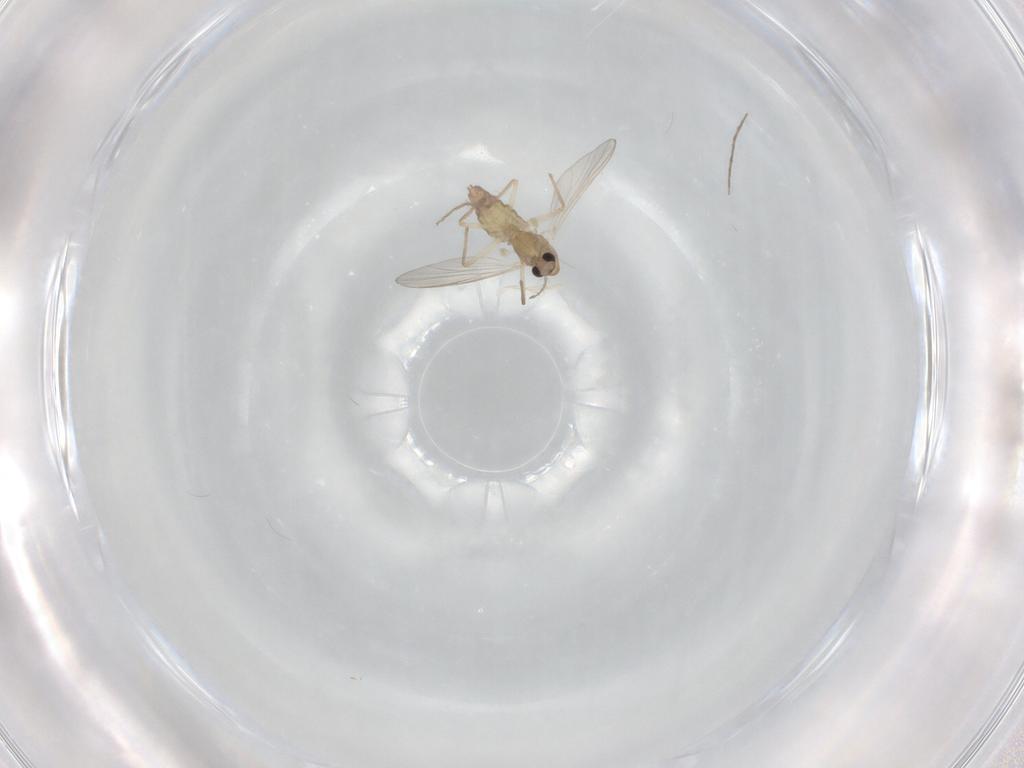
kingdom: Animalia
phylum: Arthropoda
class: Insecta
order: Diptera
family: Chironomidae
